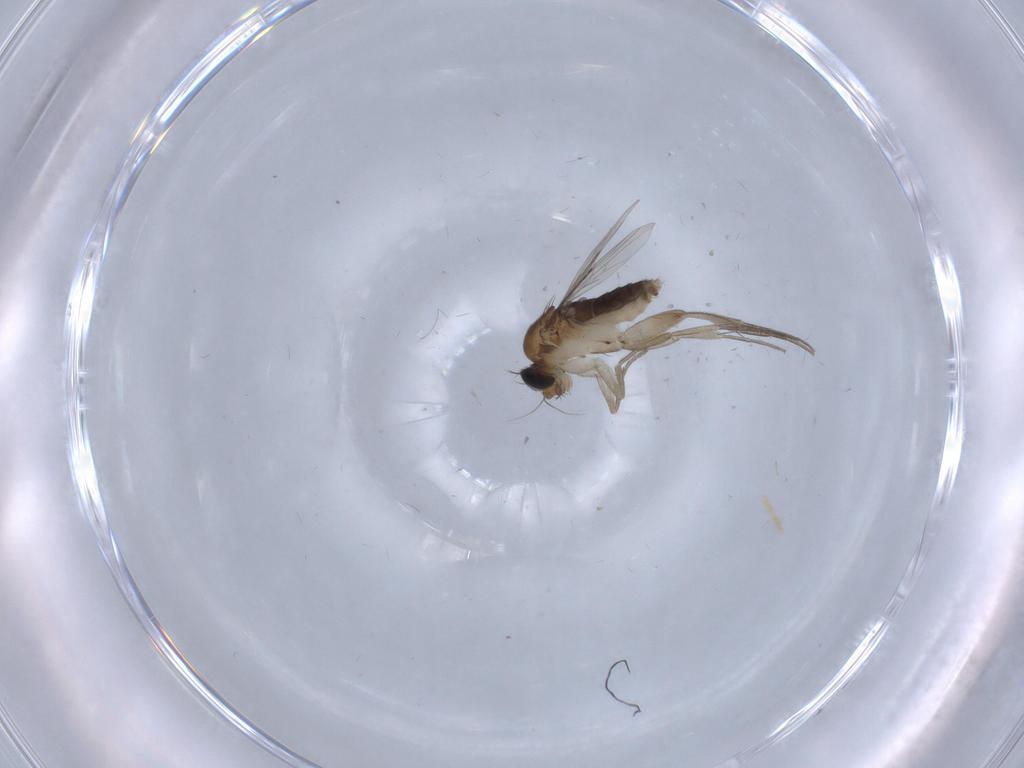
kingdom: Animalia
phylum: Arthropoda
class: Insecta
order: Diptera
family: Phoridae
